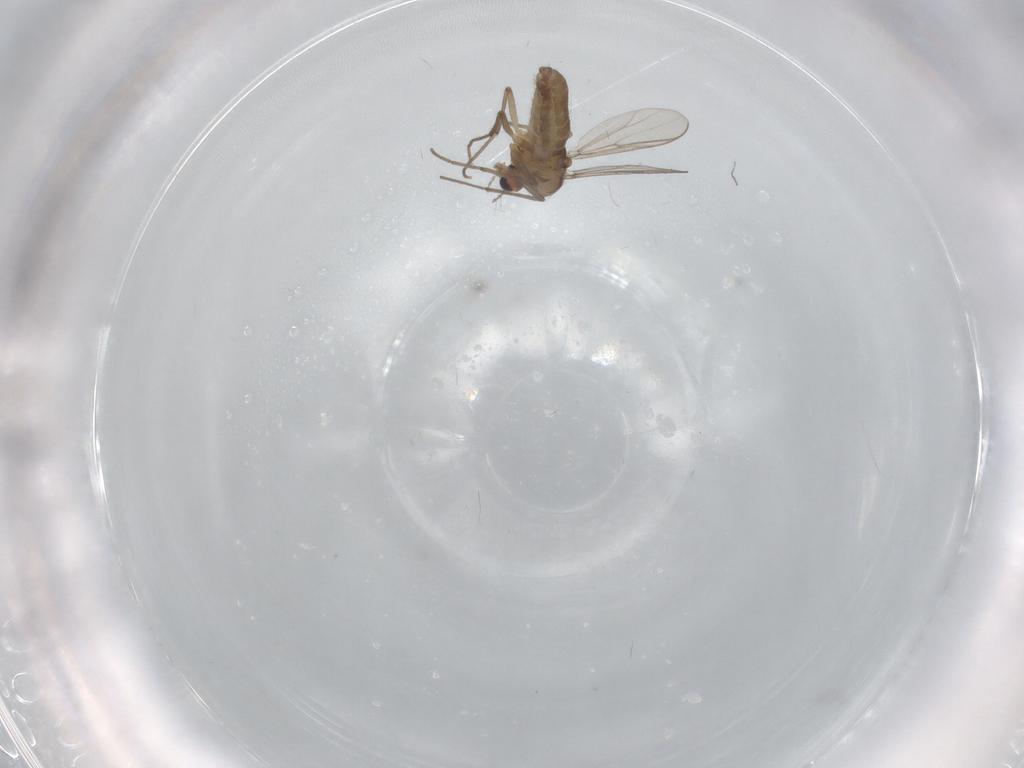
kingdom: Animalia
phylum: Arthropoda
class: Insecta
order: Diptera
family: Chironomidae
